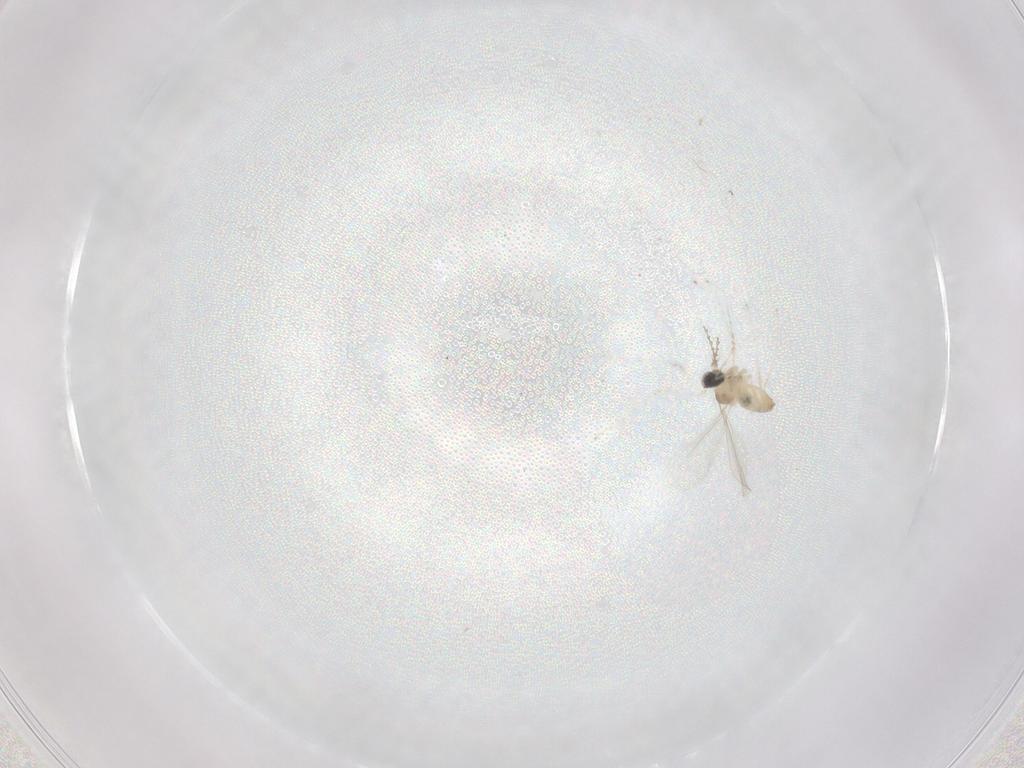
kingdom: Animalia
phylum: Arthropoda
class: Insecta
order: Diptera
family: Cecidomyiidae
